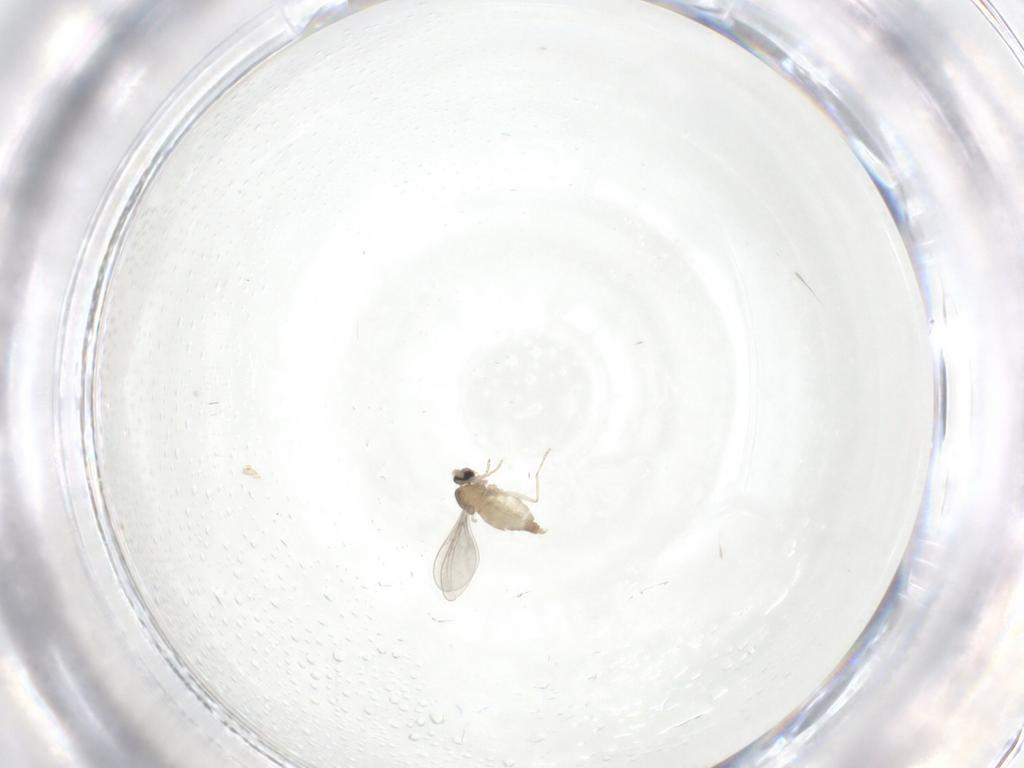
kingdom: Animalia
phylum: Arthropoda
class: Insecta
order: Diptera
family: Cecidomyiidae
